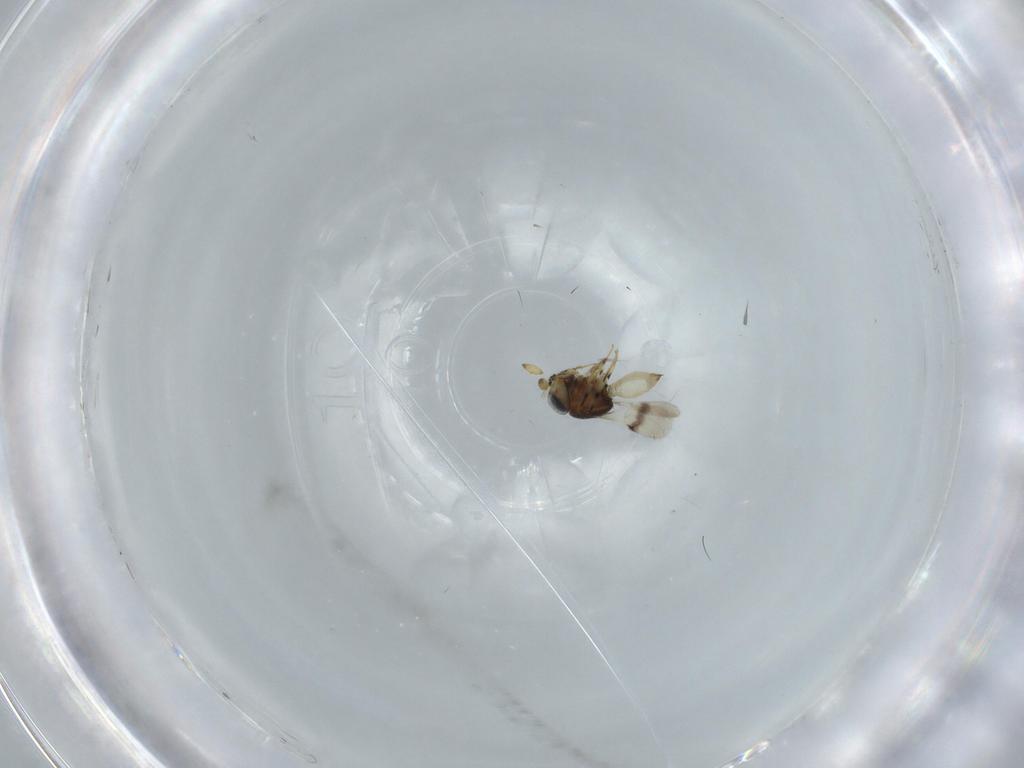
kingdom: Animalia
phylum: Arthropoda
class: Insecta
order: Hymenoptera
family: Scelionidae
